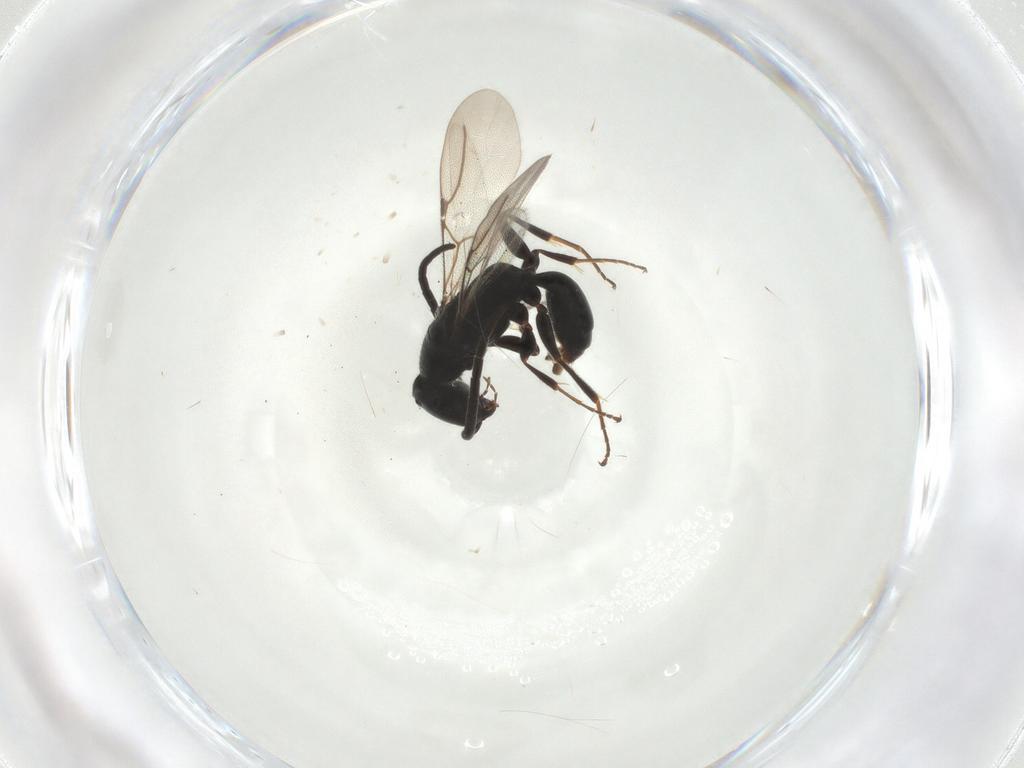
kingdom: Animalia
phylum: Arthropoda
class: Insecta
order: Hymenoptera
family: Bethylidae
